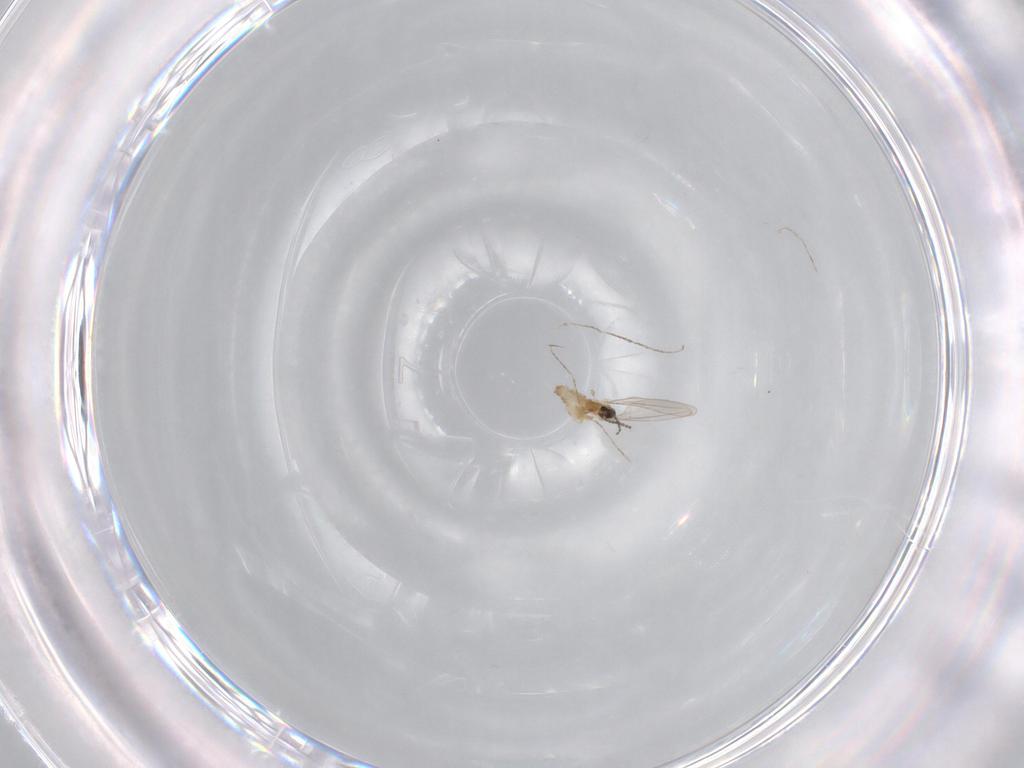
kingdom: Animalia
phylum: Arthropoda
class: Insecta
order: Diptera
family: Cecidomyiidae
